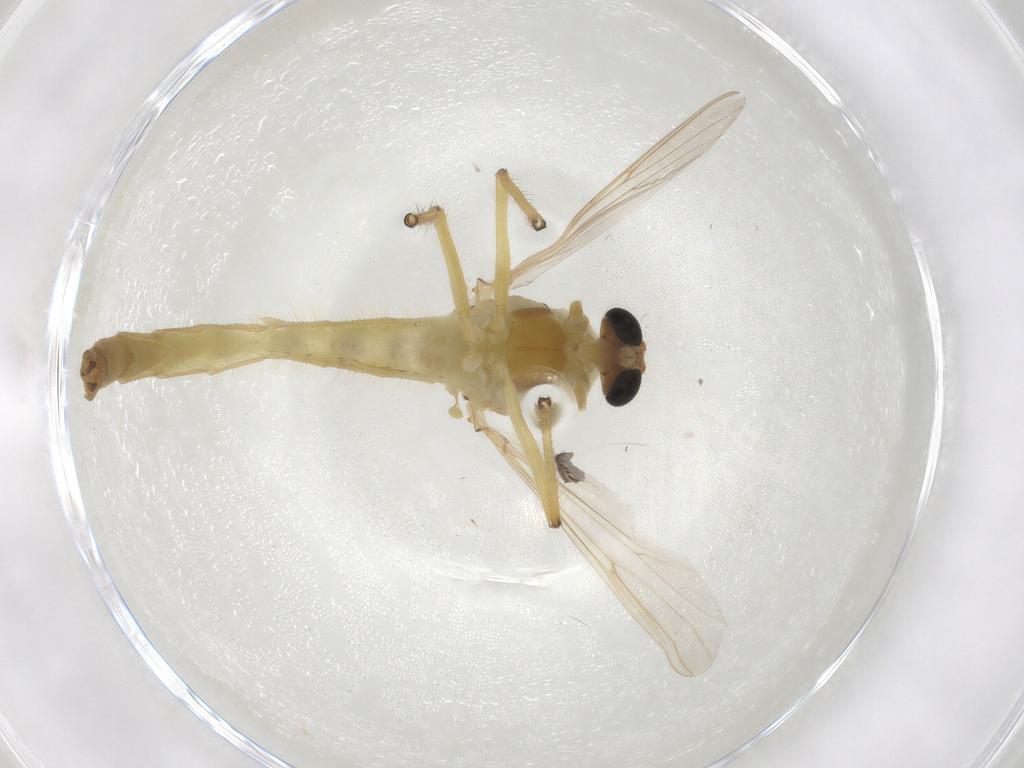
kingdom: Animalia
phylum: Arthropoda
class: Insecta
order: Diptera
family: Muscidae
